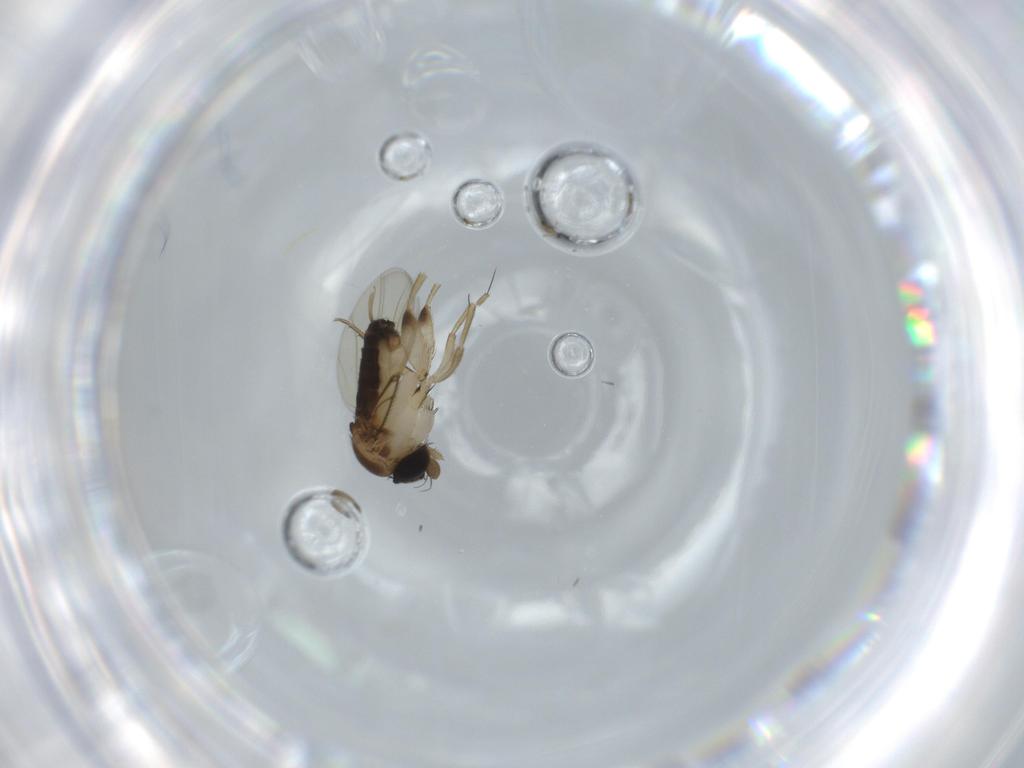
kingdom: Animalia
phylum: Arthropoda
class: Insecta
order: Diptera
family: Phoridae
